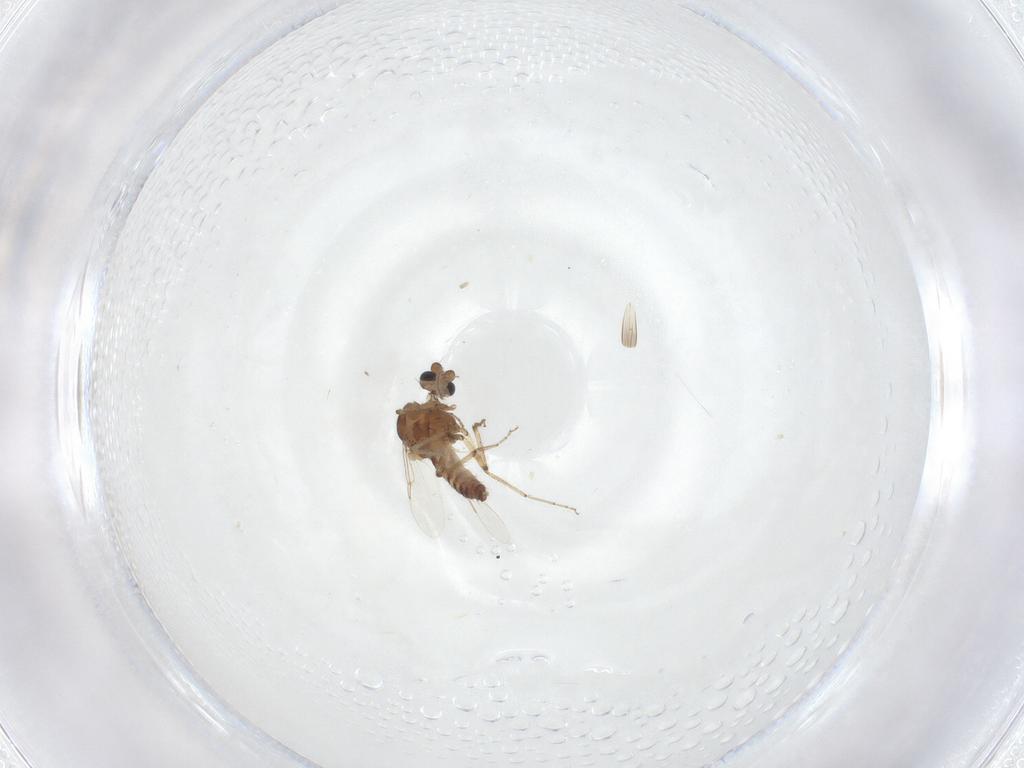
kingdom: Animalia
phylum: Arthropoda
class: Insecta
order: Diptera
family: Ceratopogonidae
